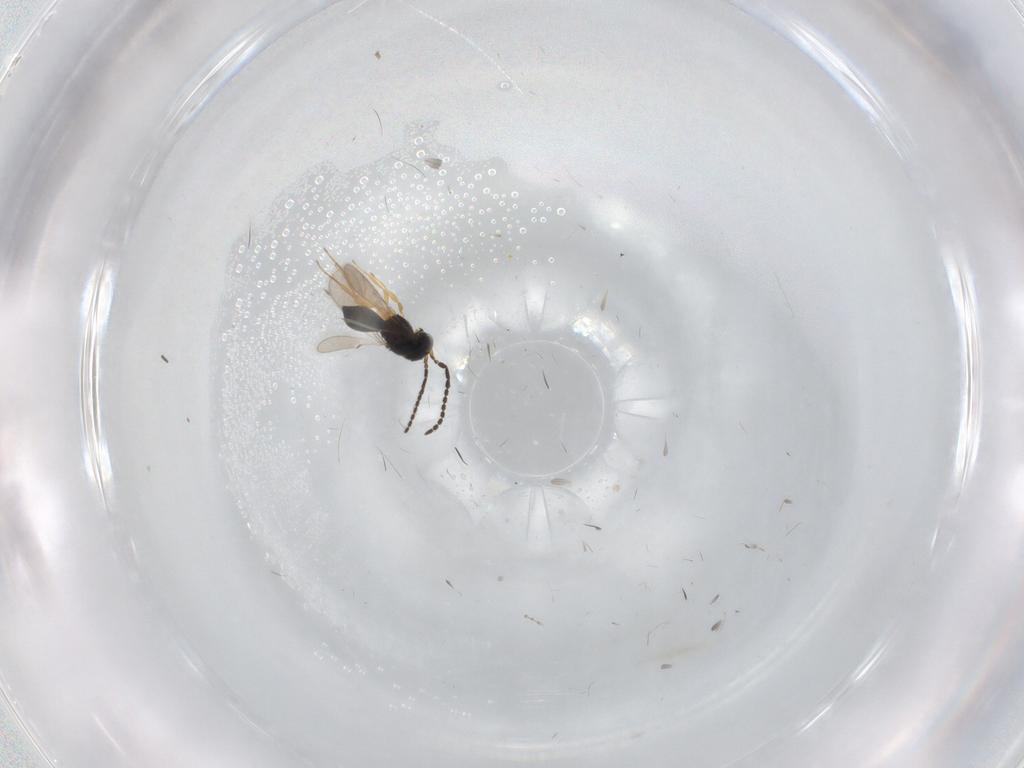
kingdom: Animalia
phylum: Arthropoda
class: Insecta
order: Hymenoptera
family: Scelionidae
